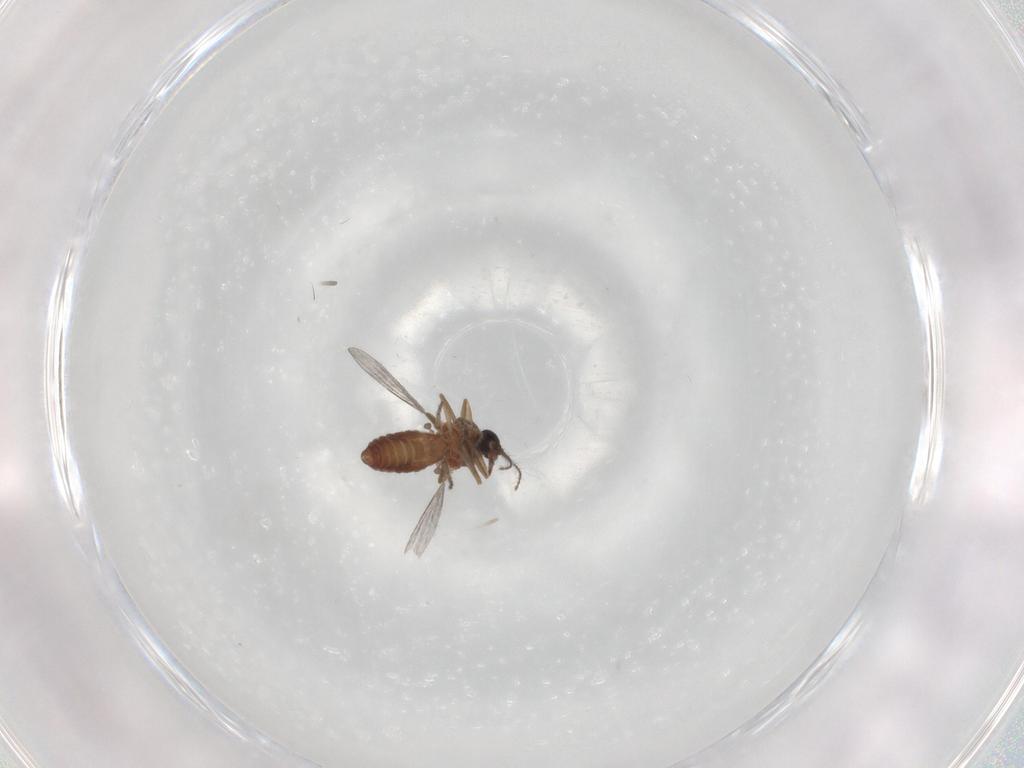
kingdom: Animalia
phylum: Arthropoda
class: Insecta
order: Diptera
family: Ceratopogonidae
